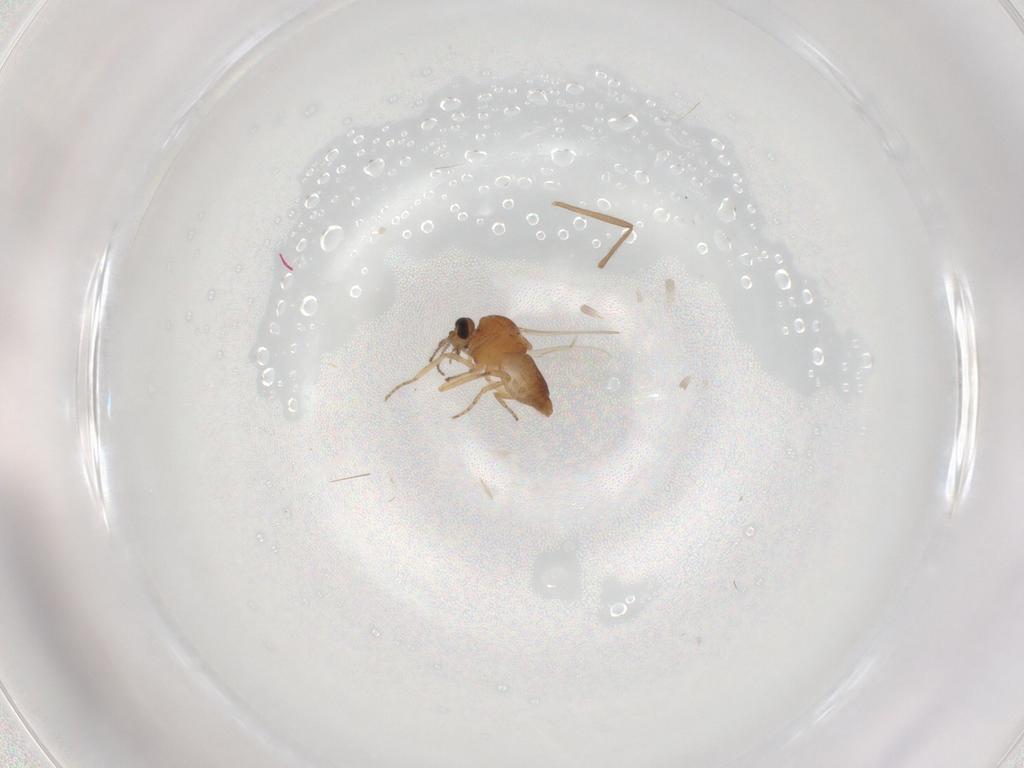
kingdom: Animalia
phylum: Arthropoda
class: Insecta
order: Diptera
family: Ceratopogonidae
